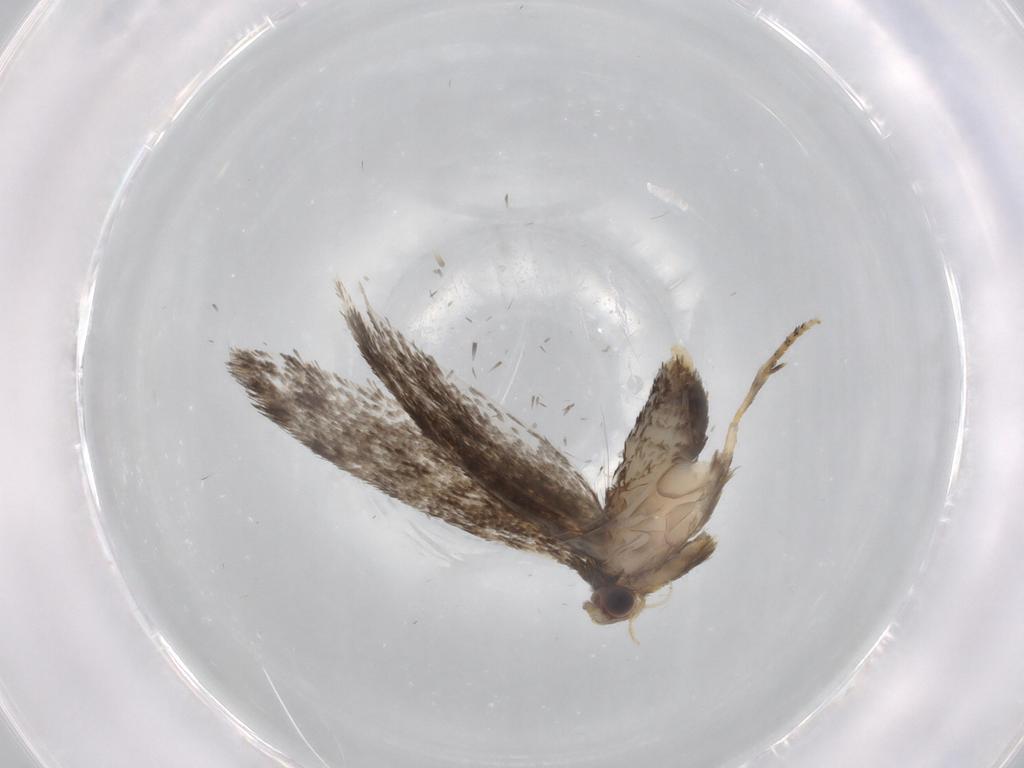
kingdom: Animalia
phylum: Arthropoda
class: Insecta
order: Lepidoptera
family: Tineidae
